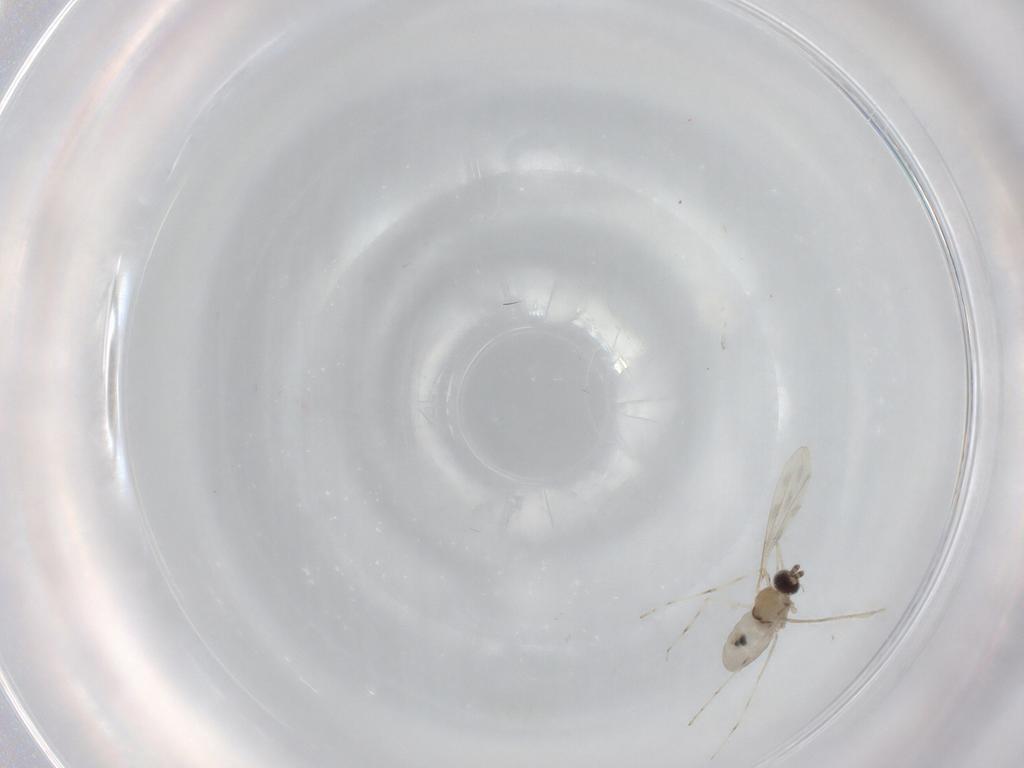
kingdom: Animalia
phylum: Arthropoda
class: Insecta
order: Diptera
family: Cecidomyiidae
